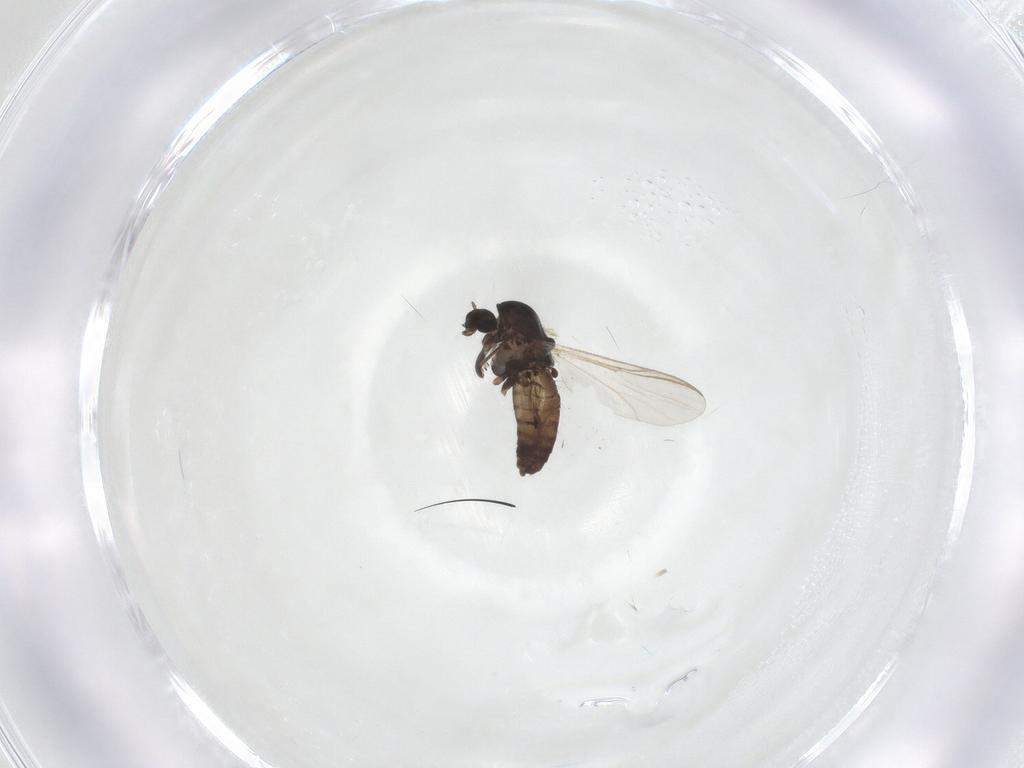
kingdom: Animalia
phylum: Arthropoda
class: Insecta
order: Diptera
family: Chironomidae
